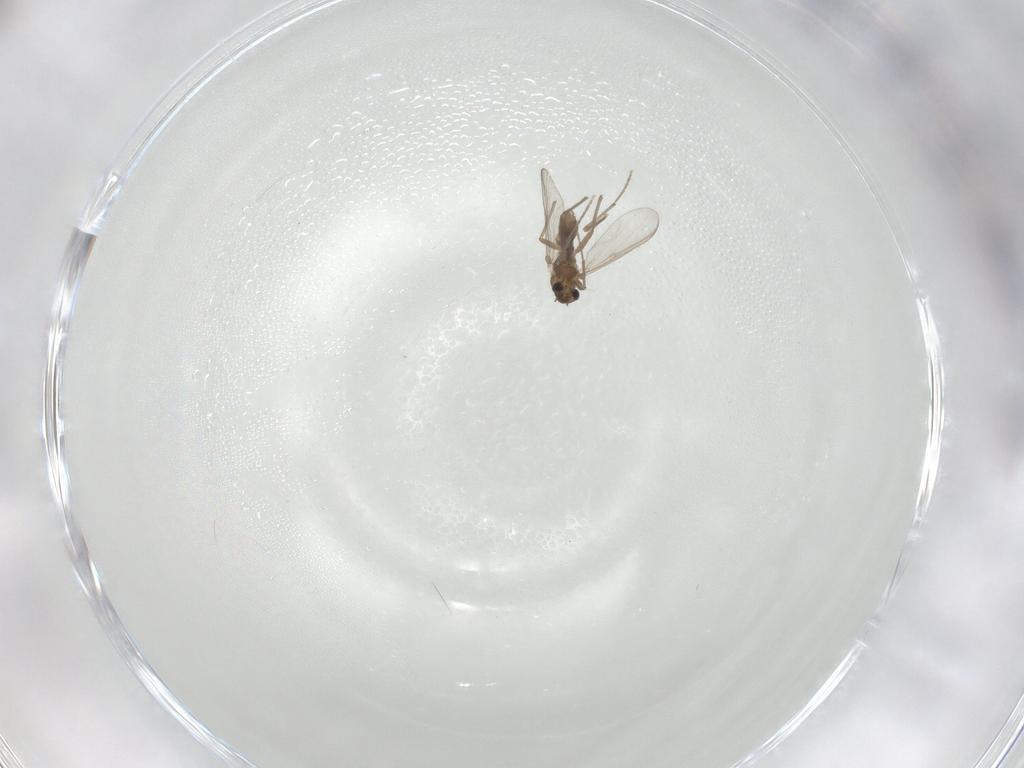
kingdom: Animalia
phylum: Arthropoda
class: Insecta
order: Diptera
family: Chironomidae
